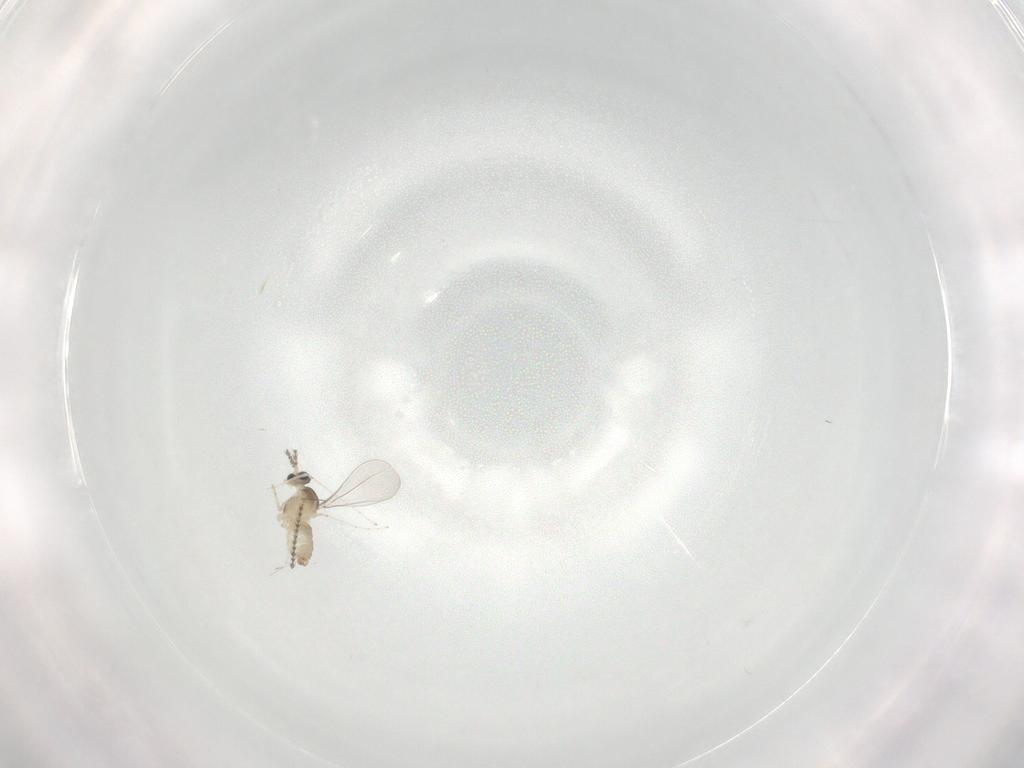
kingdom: Animalia
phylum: Arthropoda
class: Insecta
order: Diptera
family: Cecidomyiidae
